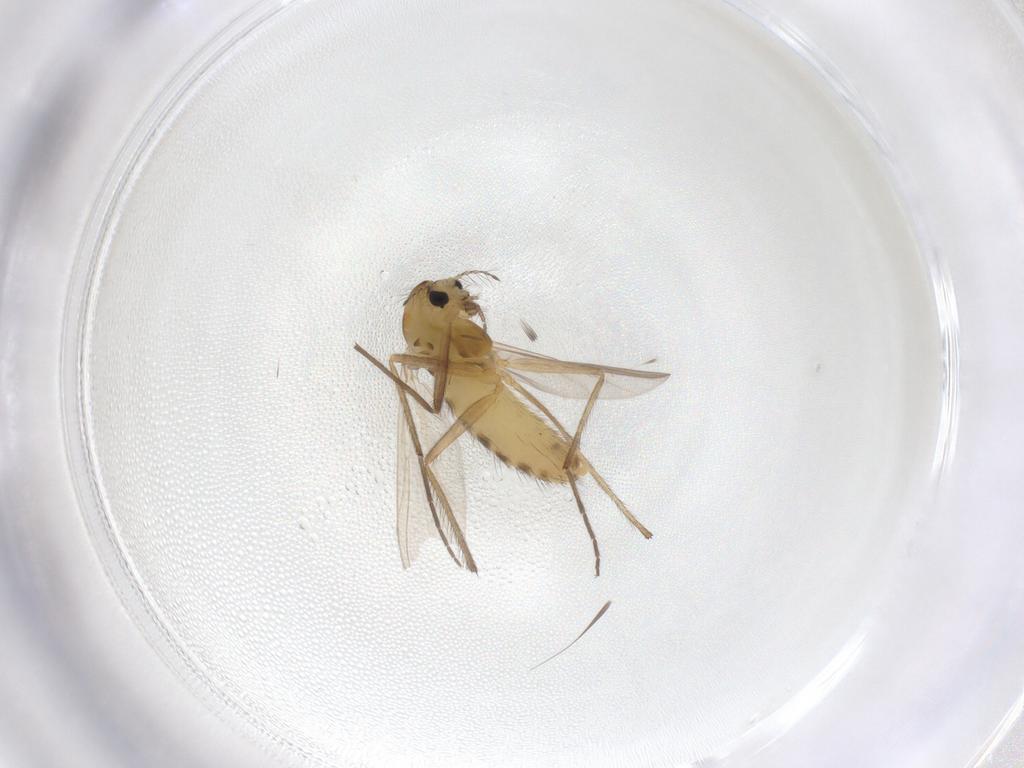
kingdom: Animalia
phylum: Arthropoda
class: Insecta
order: Diptera
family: Chironomidae
